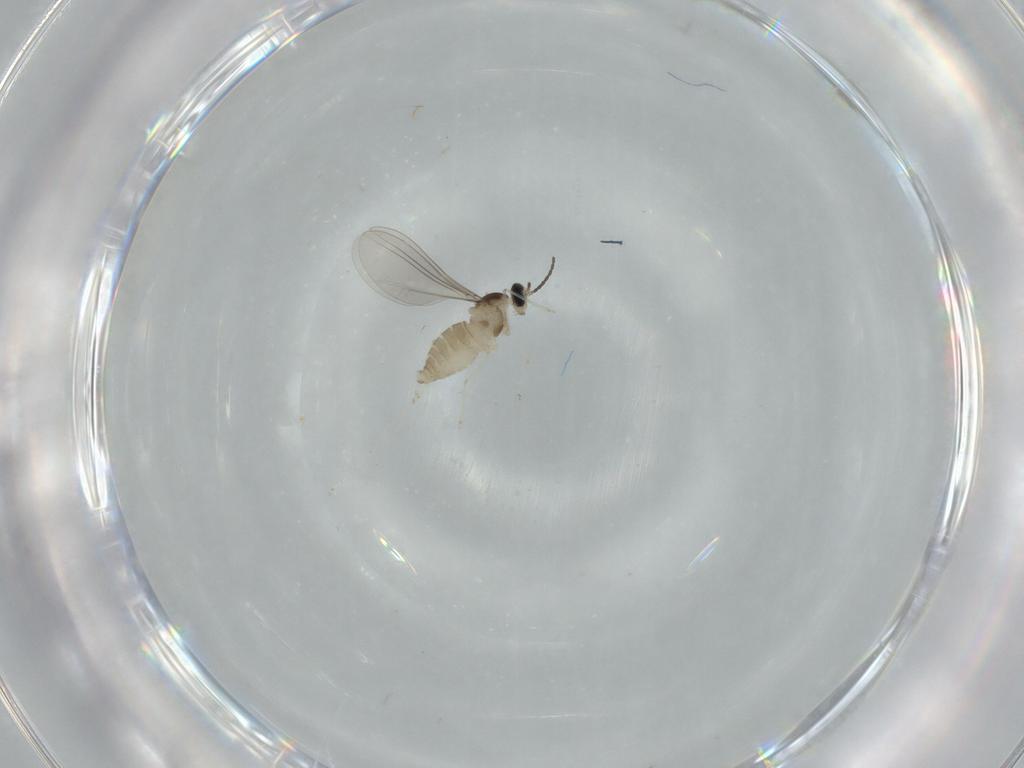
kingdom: Animalia
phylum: Arthropoda
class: Insecta
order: Diptera
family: Cecidomyiidae
